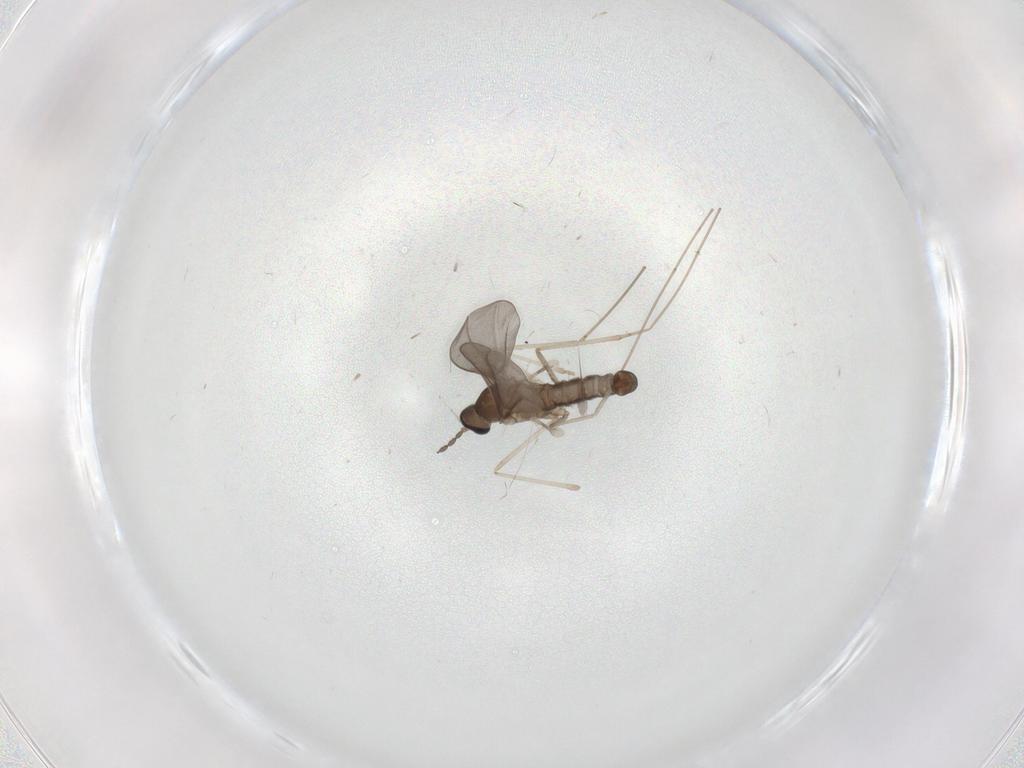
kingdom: Animalia
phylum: Arthropoda
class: Insecta
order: Diptera
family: Cecidomyiidae
